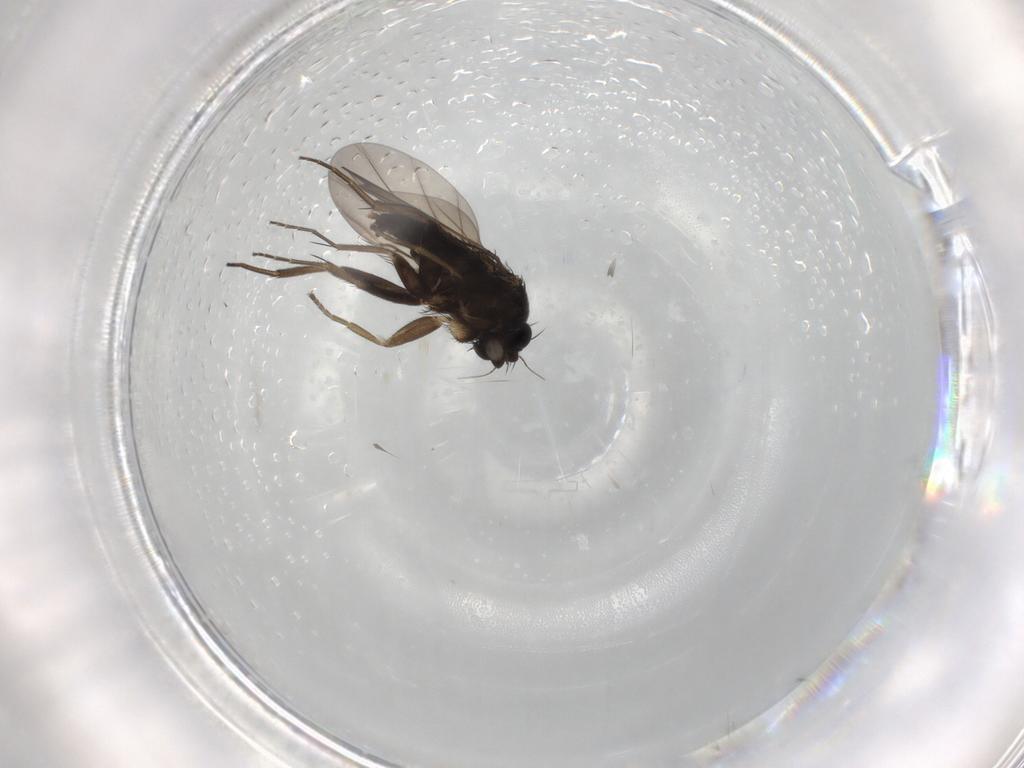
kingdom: Animalia
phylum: Arthropoda
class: Insecta
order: Diptera
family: Phoridae
